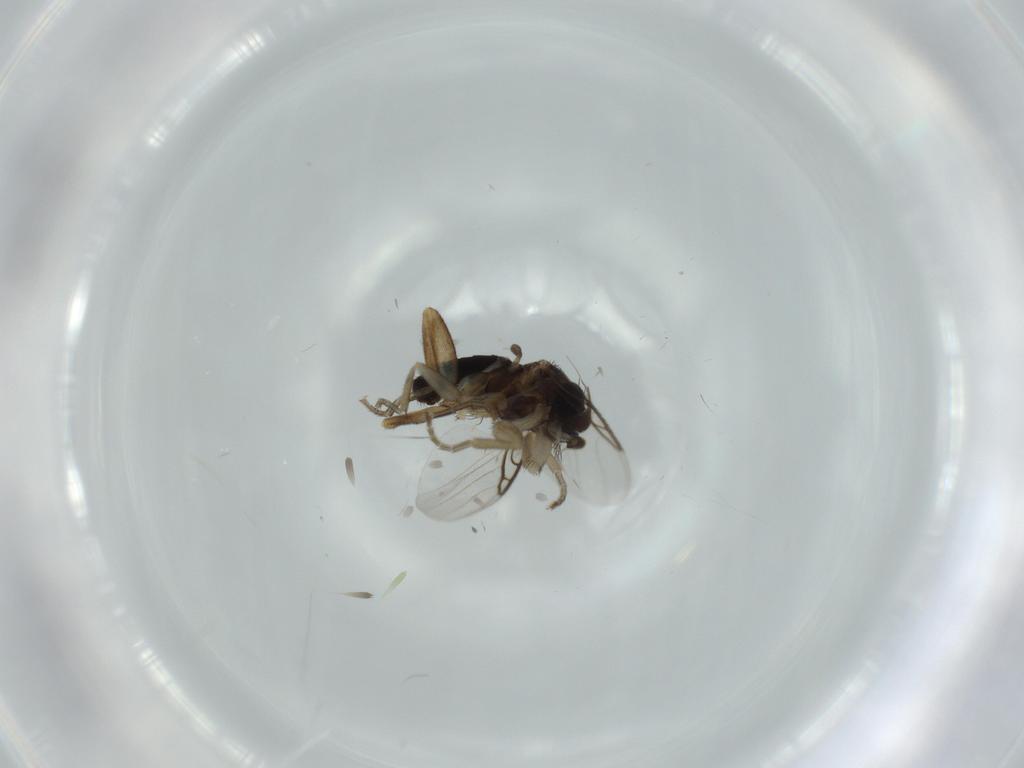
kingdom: Animalia
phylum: Arthropoda
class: Insecta
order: Diptera
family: Phoridae
